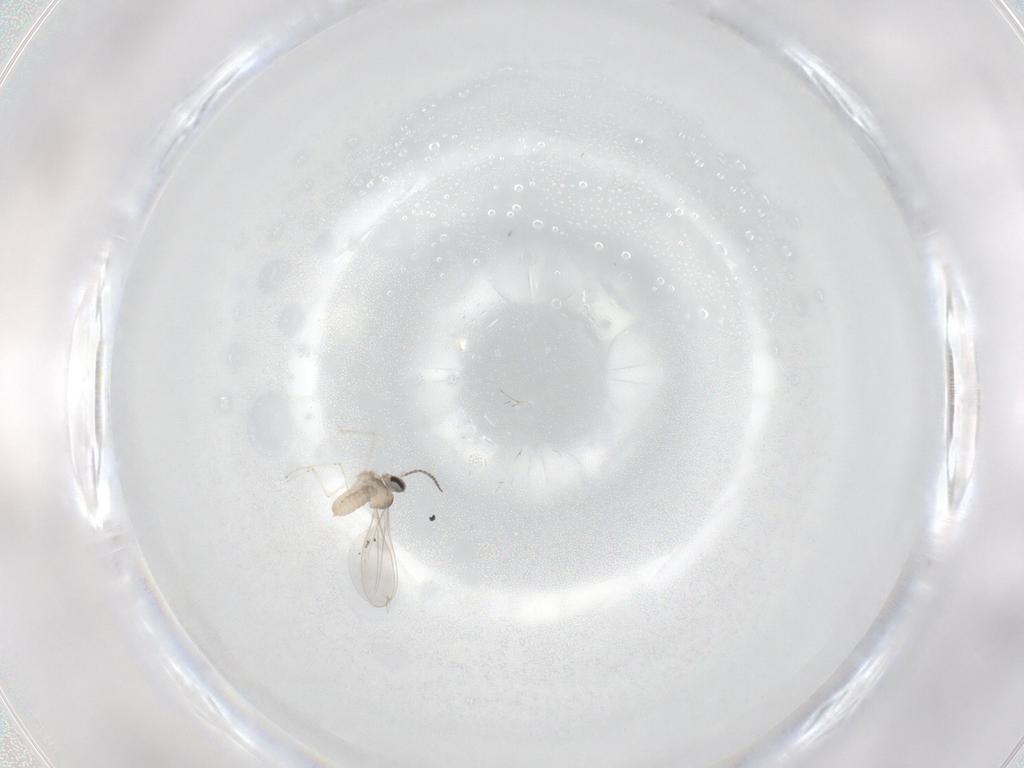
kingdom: Animalia
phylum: Arthropoda
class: Insecta
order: Diptera
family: Cecidomyiidae
